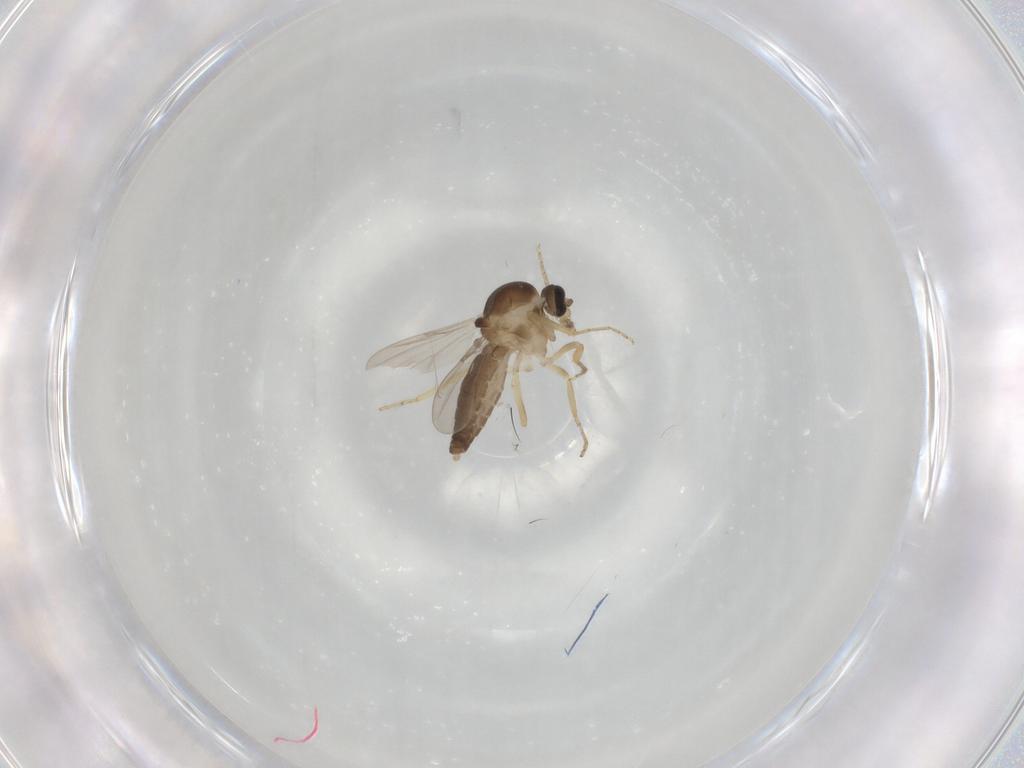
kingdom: Animalia
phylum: Arthropoda
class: Insecta
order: Diptera
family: Ceratopogonidae
